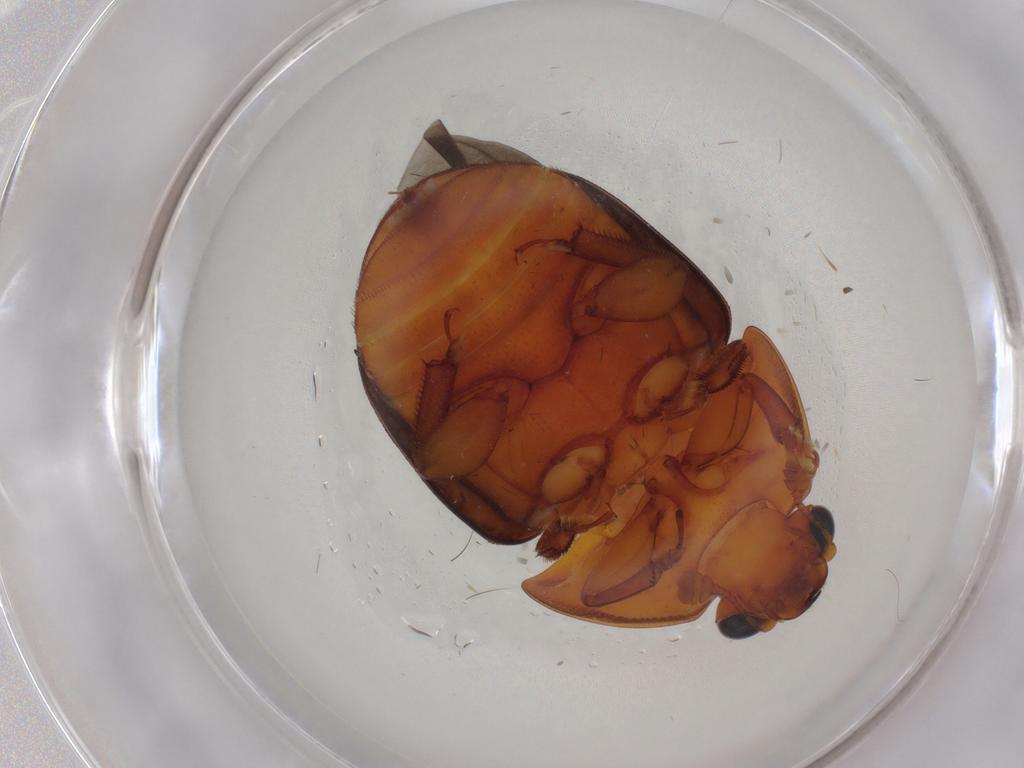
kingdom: Animalia
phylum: Arthropoda
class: Insecta
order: Coleoptera
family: Nitidulidae
